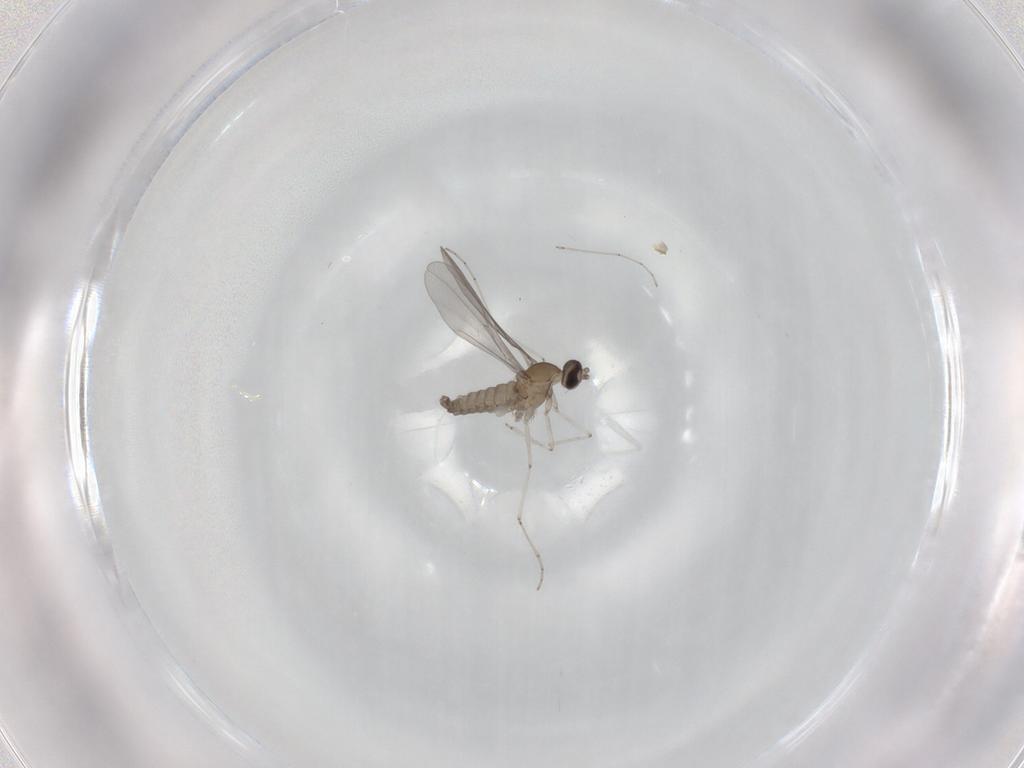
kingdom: Animalia
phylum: Arthropoda
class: Insecta
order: Diptera
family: Cecidomyiidae
